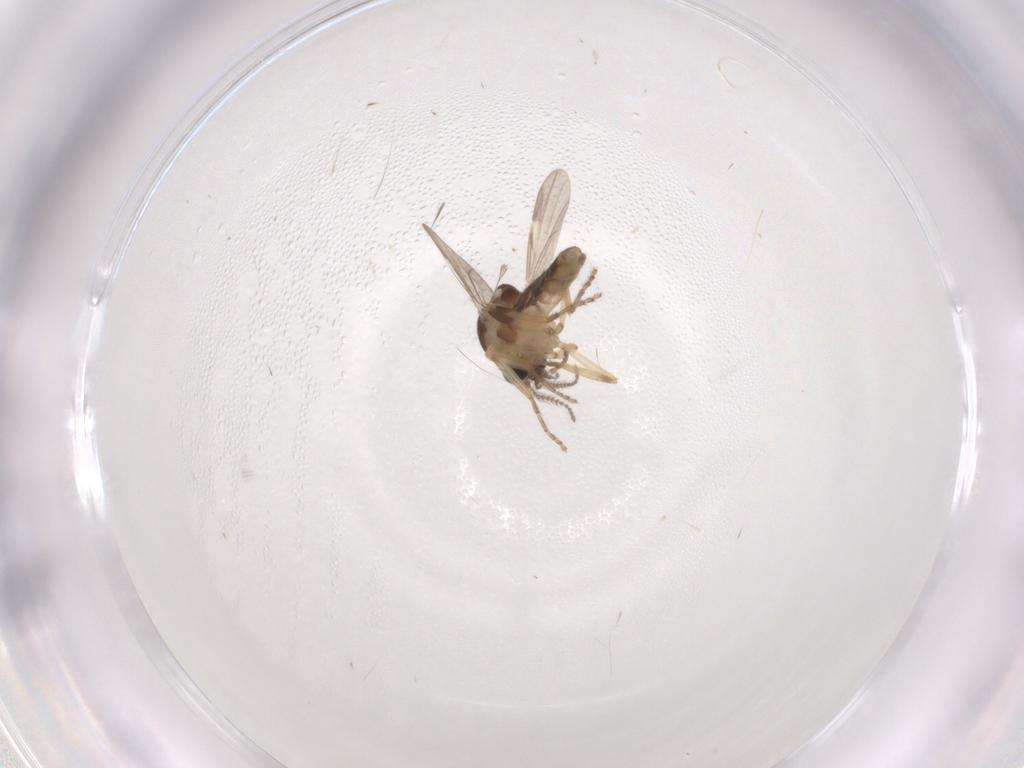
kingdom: Animalia
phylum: Arthropoda
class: Insecta
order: Diptera
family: Ceratopogonidae
